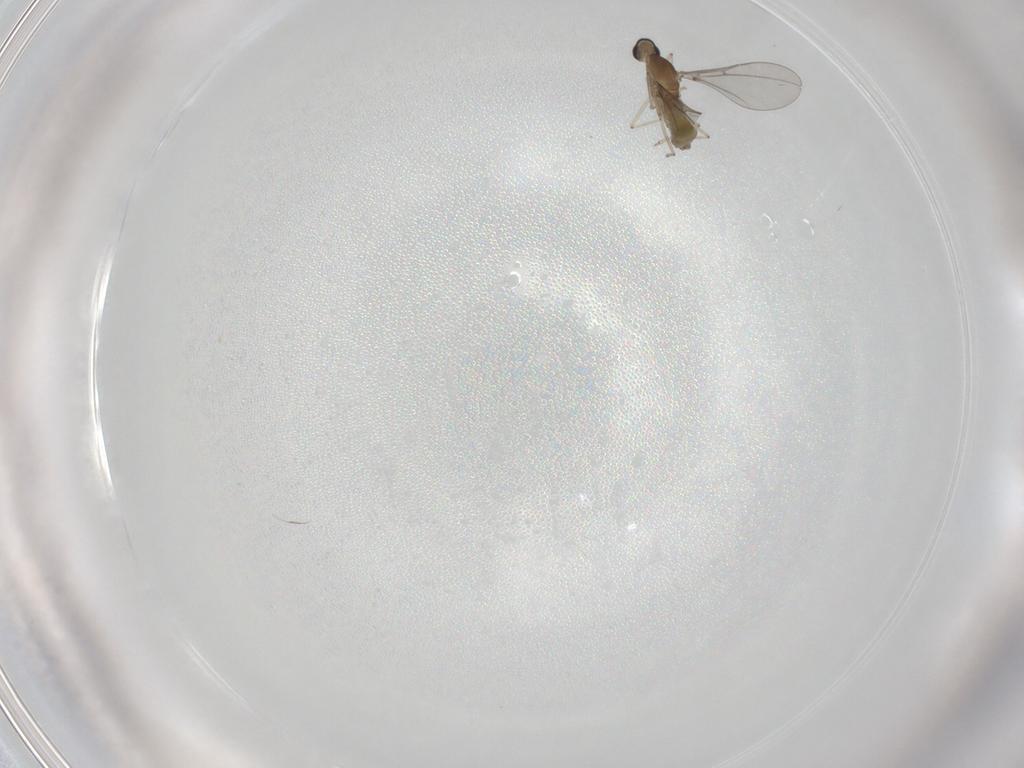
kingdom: Animalia
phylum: Arthropoda
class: Insecta
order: Diptera
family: Cecidomyiidae
